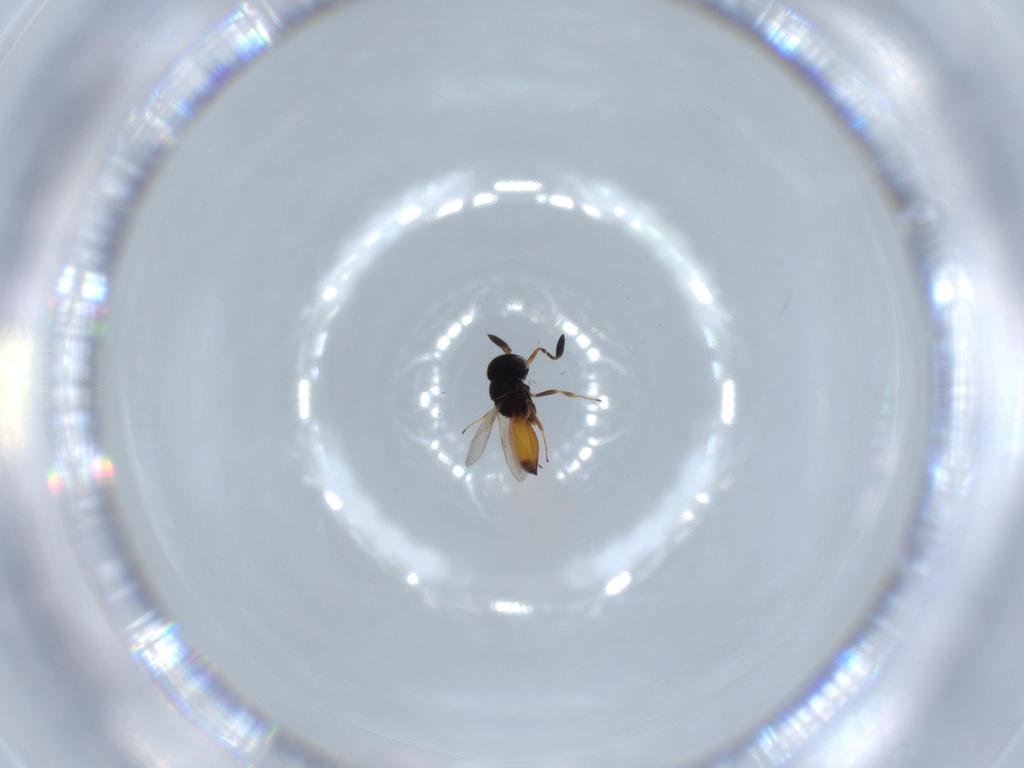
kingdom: Animalia
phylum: Arthropoda
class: Insecta
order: Hymenoptera
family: Scelionidae
